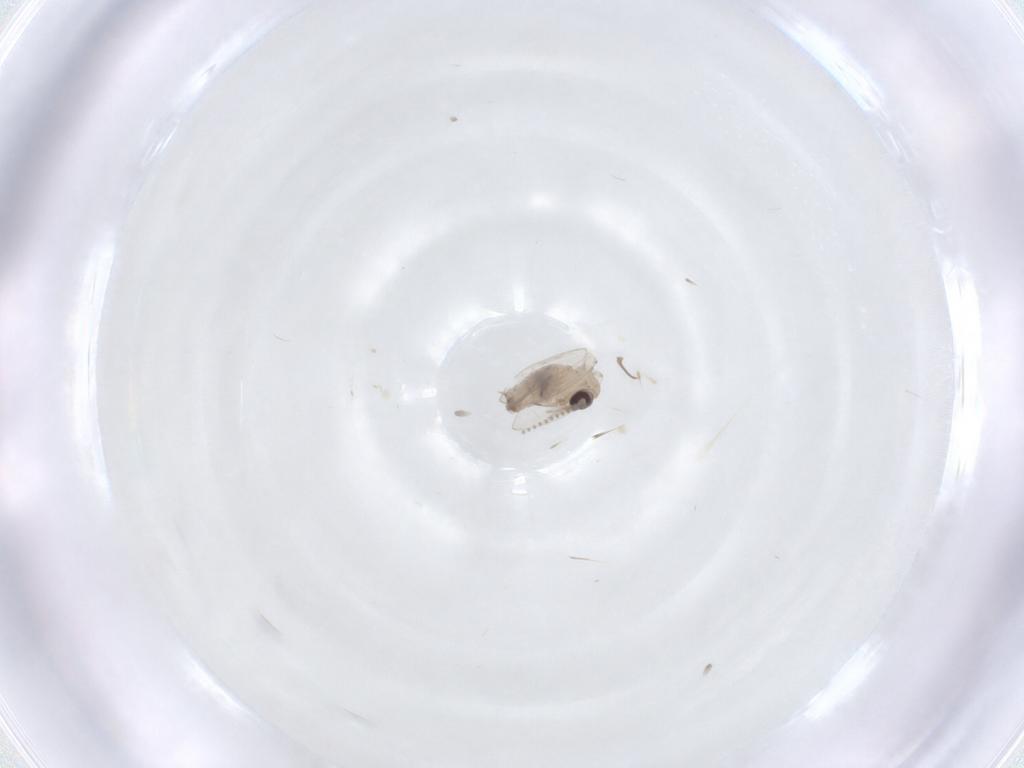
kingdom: Animalia
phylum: Arthropoda
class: Insecta
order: Diptera
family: Psychodidae
